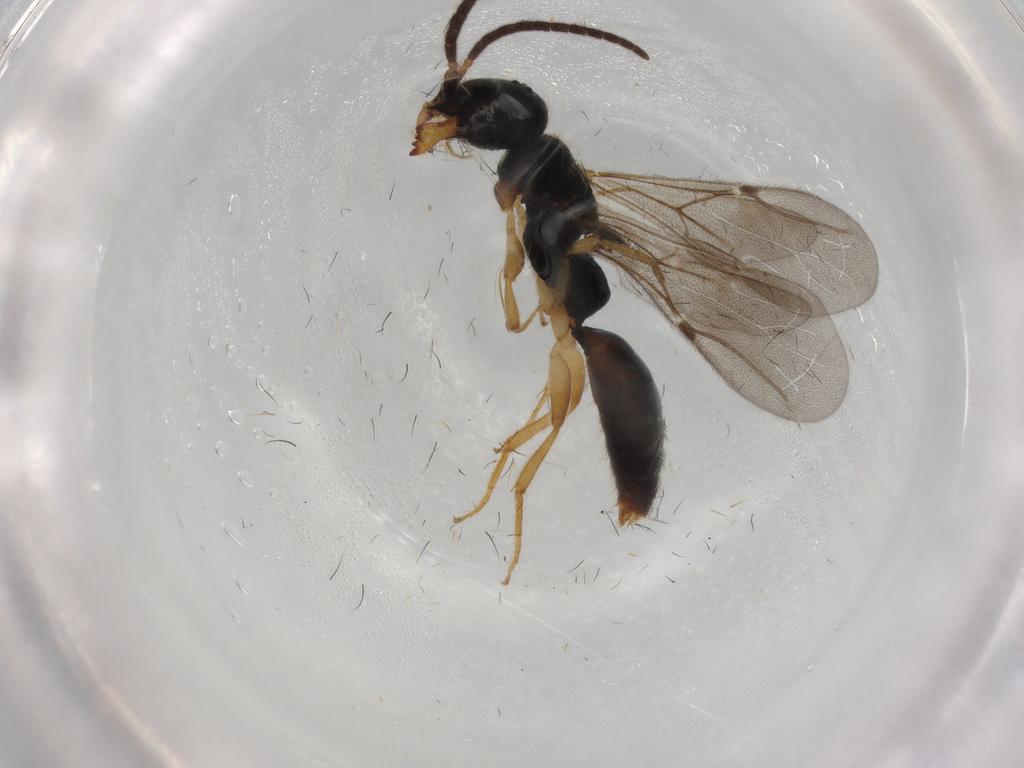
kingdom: Animalia
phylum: Arthropoda
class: Insecta
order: Hymenoptera
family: Bethylidae
